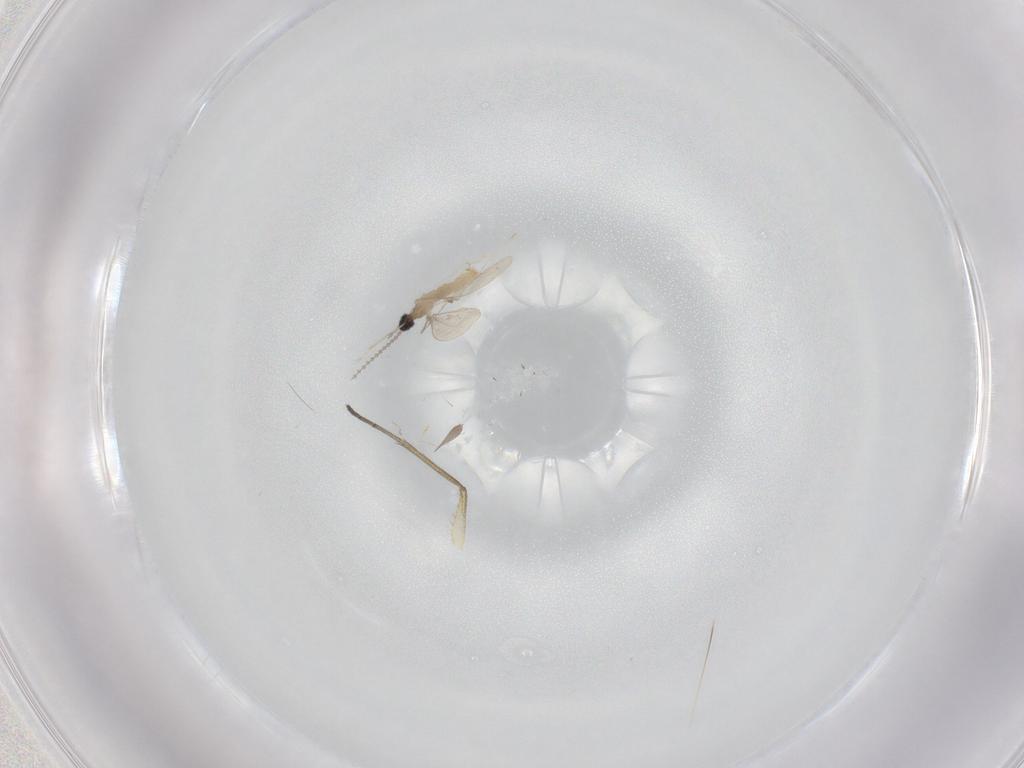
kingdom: Animalia
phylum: Arthropoda
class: Insecta
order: Diptera
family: Cecidomyiidae
